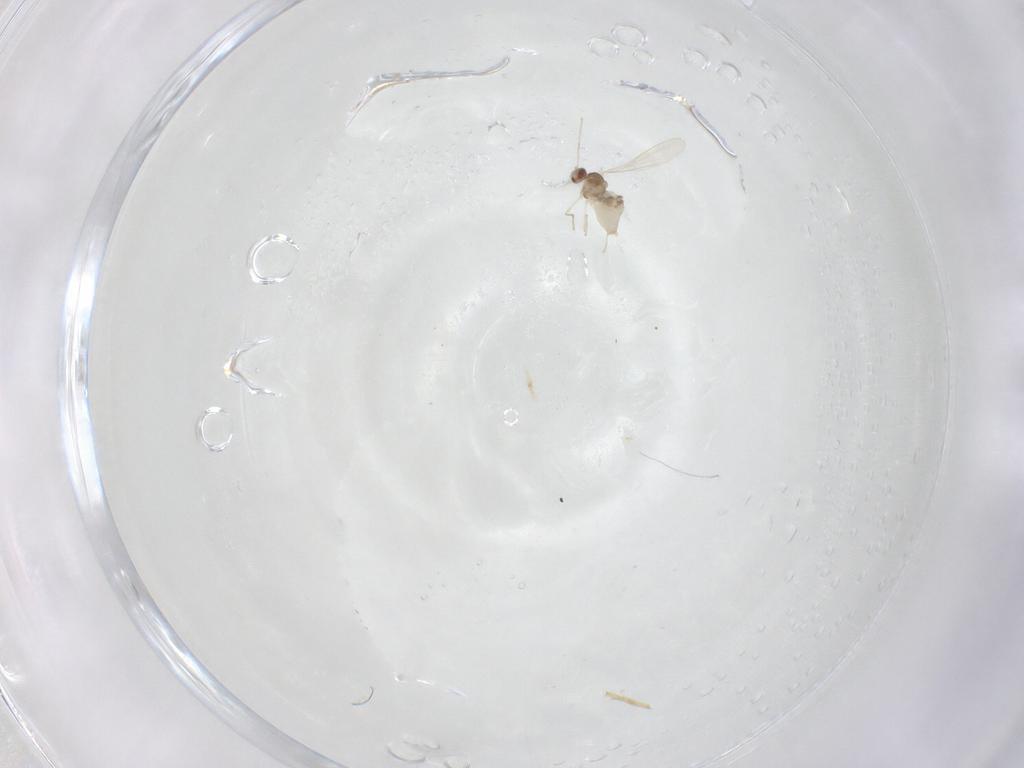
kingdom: Animalia
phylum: Arthropoda
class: Insecta
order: Diptera
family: Cecidomyiidae
